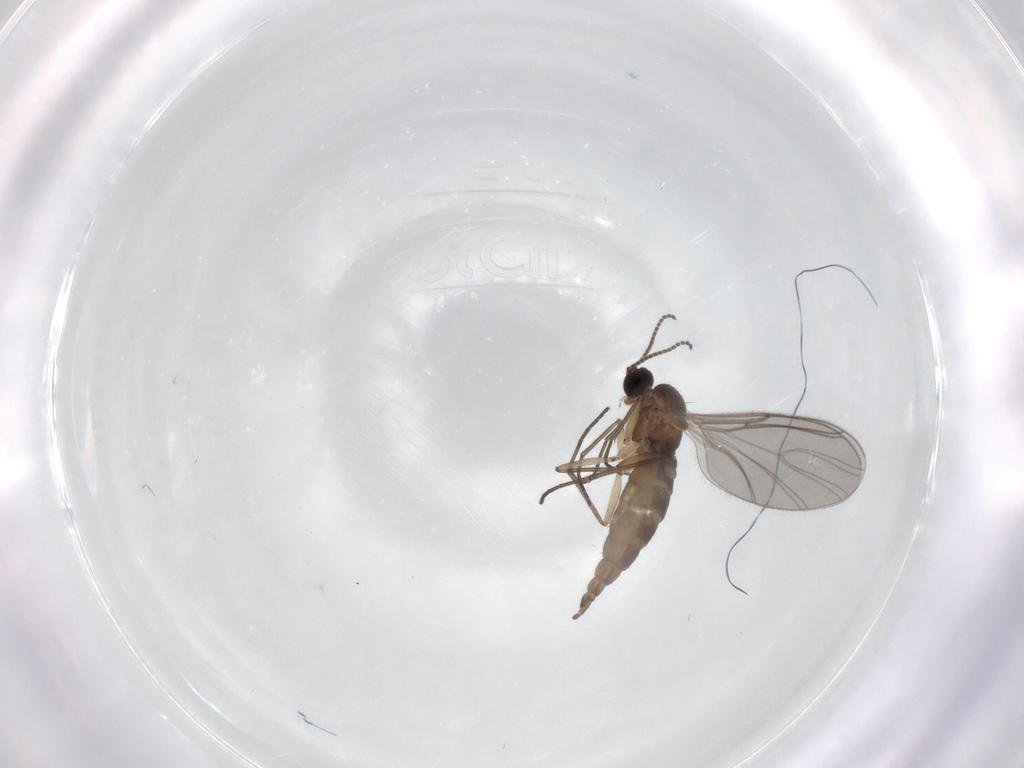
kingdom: Animalia
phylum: Arthropoda
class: Insecta
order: Diptera
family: Sciaridae
